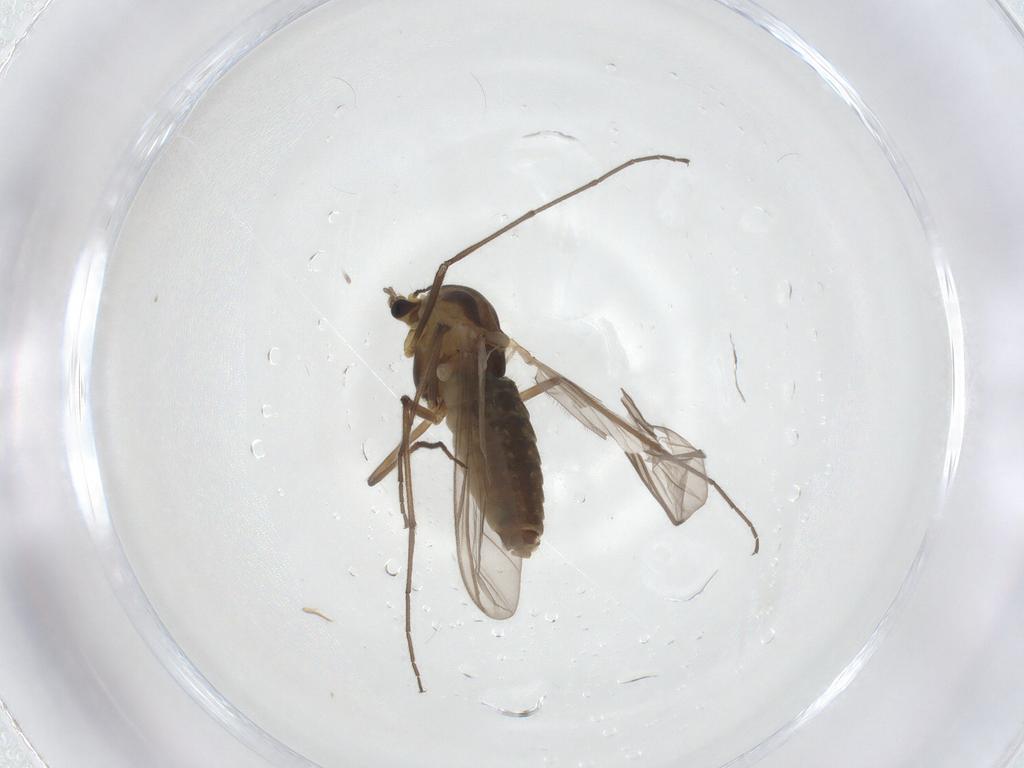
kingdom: Animalia
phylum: Arthropoda
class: Insecta
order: Diptera
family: Chironomidae
